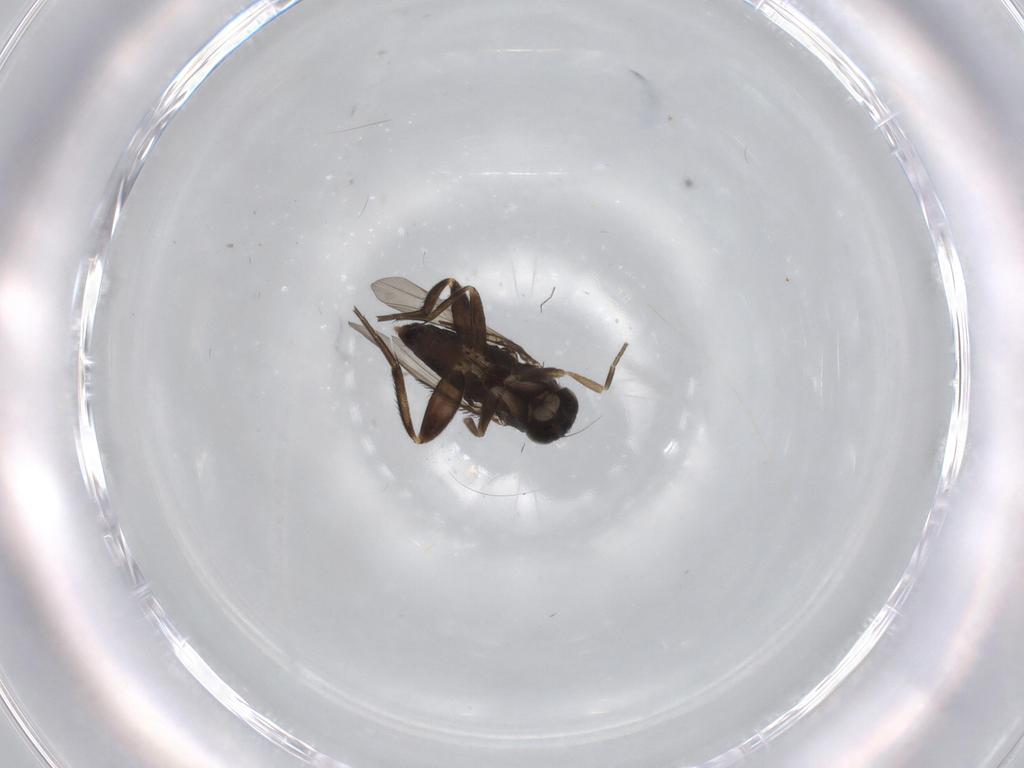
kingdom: Animalia
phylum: Arthropoda
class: Insecta
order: Diptera
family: Phoridae
